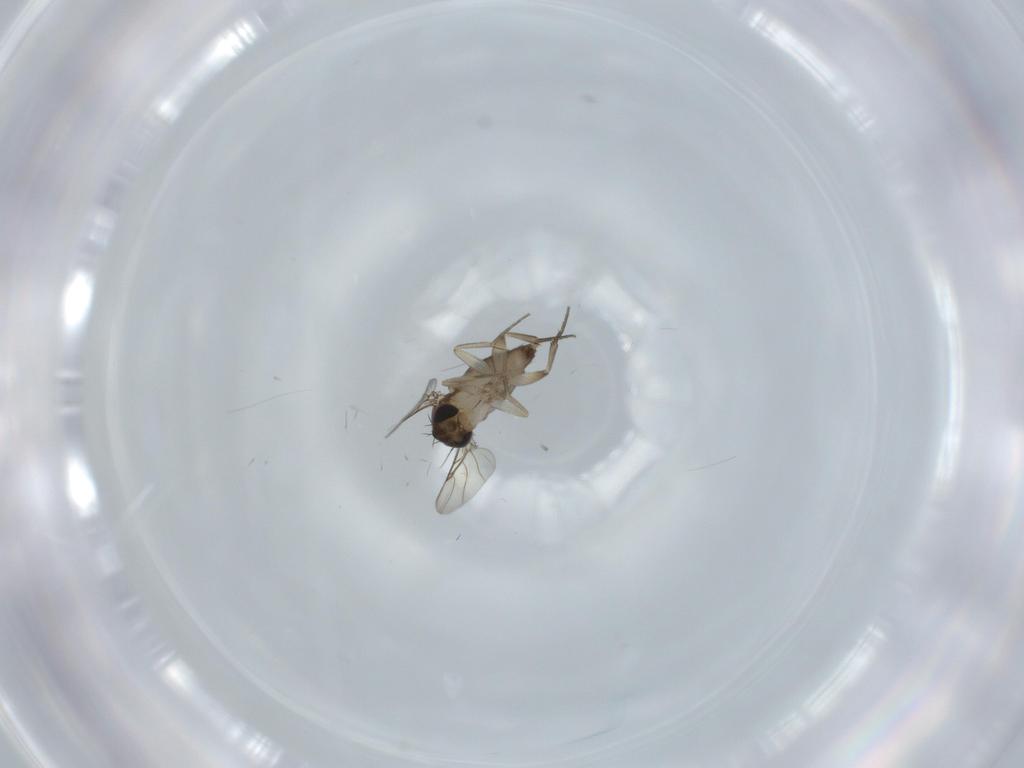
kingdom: Animalia
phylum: Arthropoda
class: Insecta
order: Diptera
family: Phoridae
